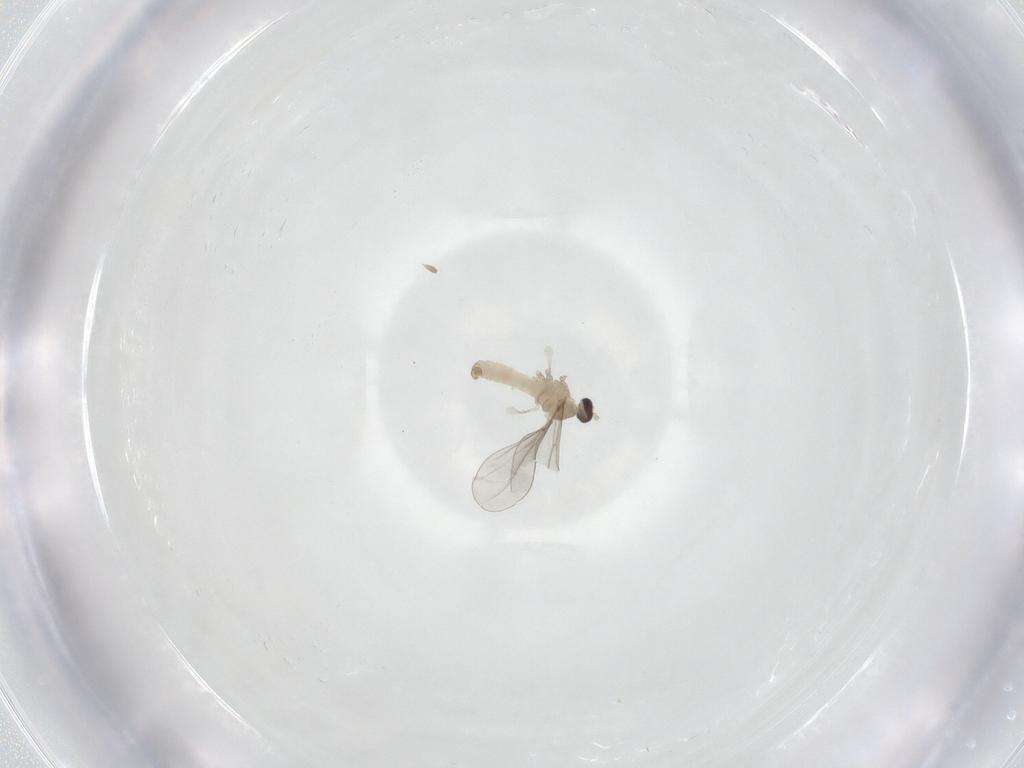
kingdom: Animalia
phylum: Arthropoda
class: Insecta
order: Diptera
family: Cecidomyiidae
